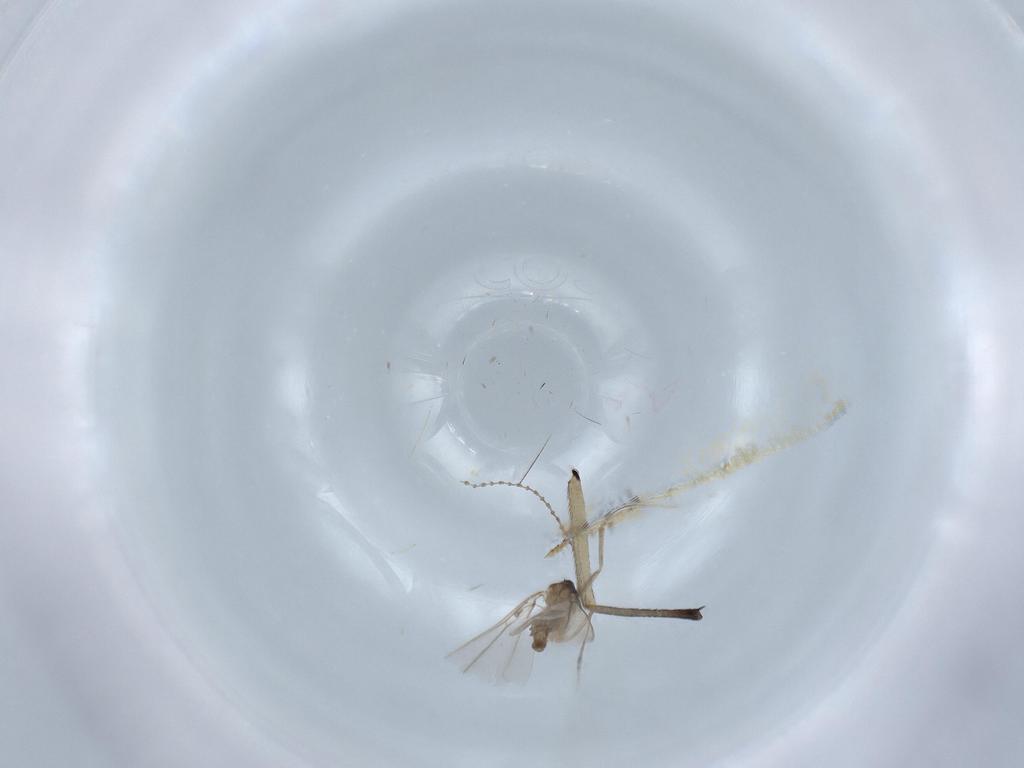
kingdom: Animalia
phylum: Arthropoda
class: Insecta
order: Diptera
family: Cecidomyiidae
